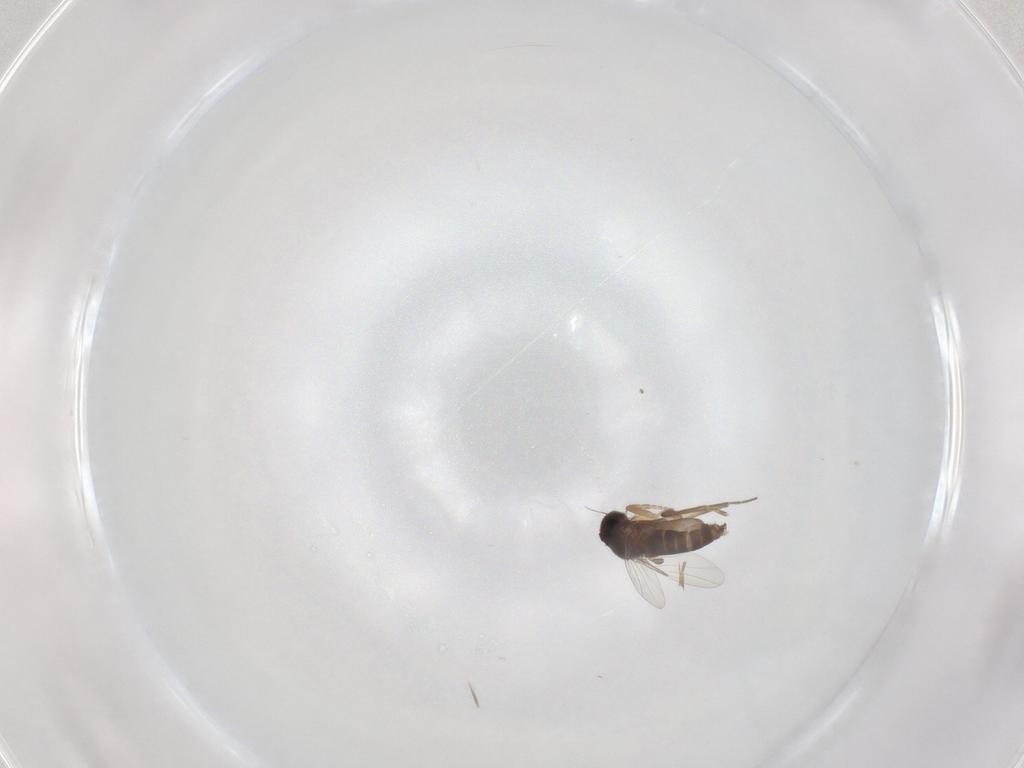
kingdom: Animalia
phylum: Arthropoda
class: Insecta
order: Diptera
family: Phoridae
